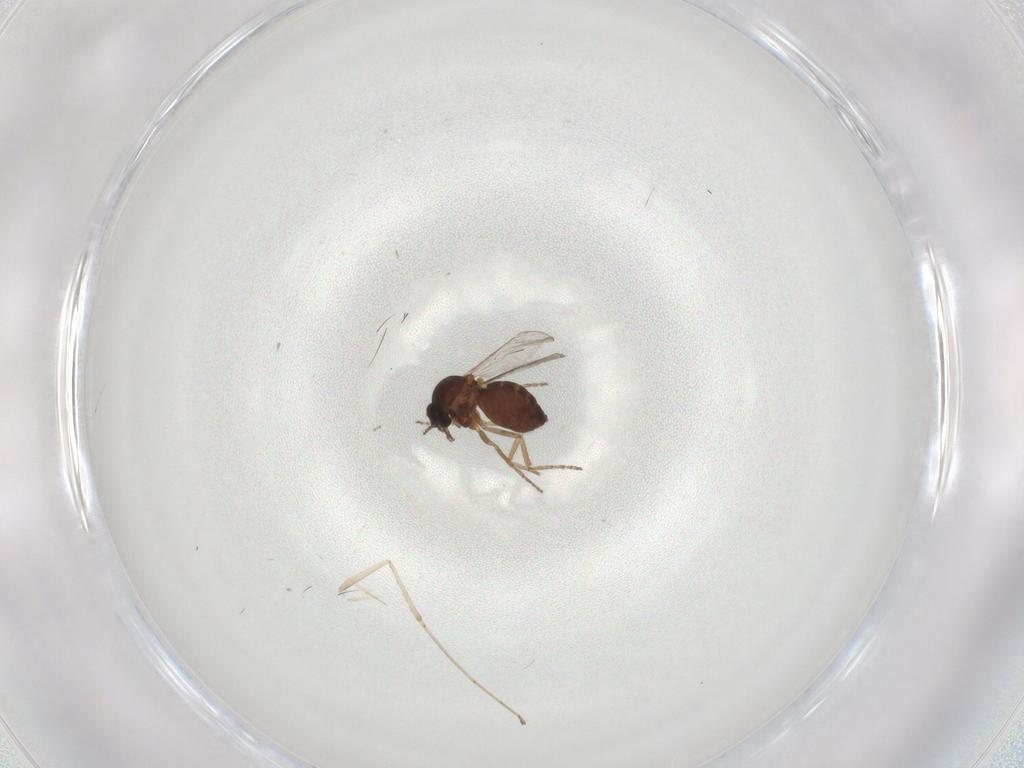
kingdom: Animalia
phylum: Arthropoda
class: Insecta
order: Diptera
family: Cecidomyiidae
